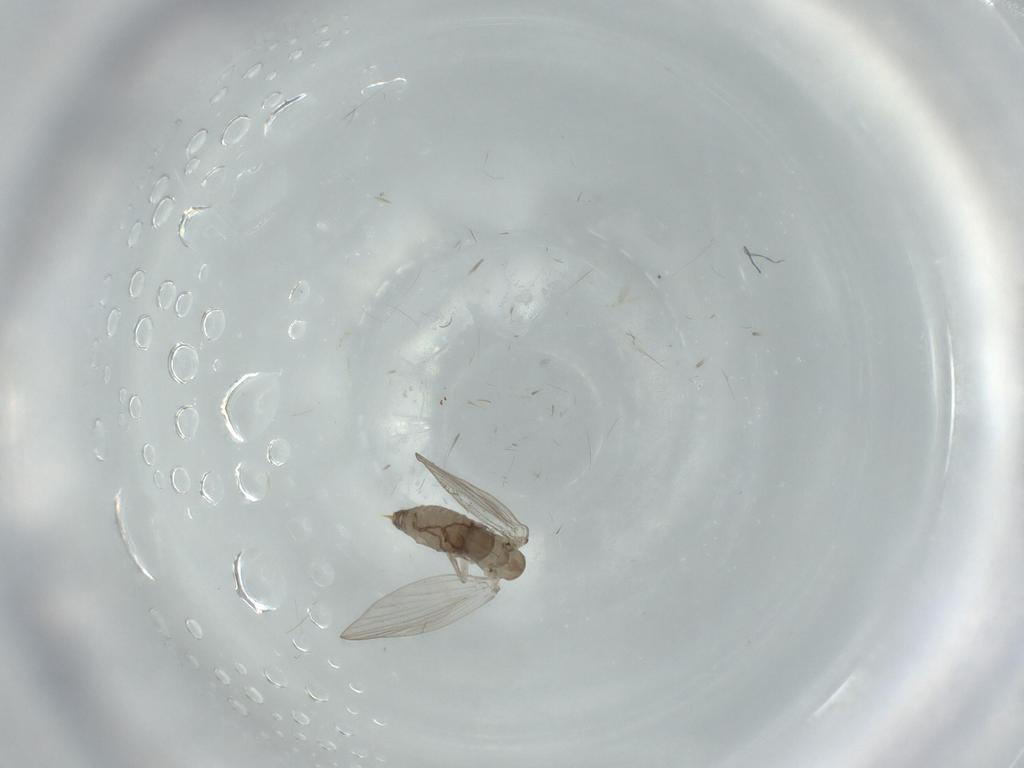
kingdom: Animalia
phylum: Arthropoda
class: Insecta
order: Diptera
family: Psychodidae
